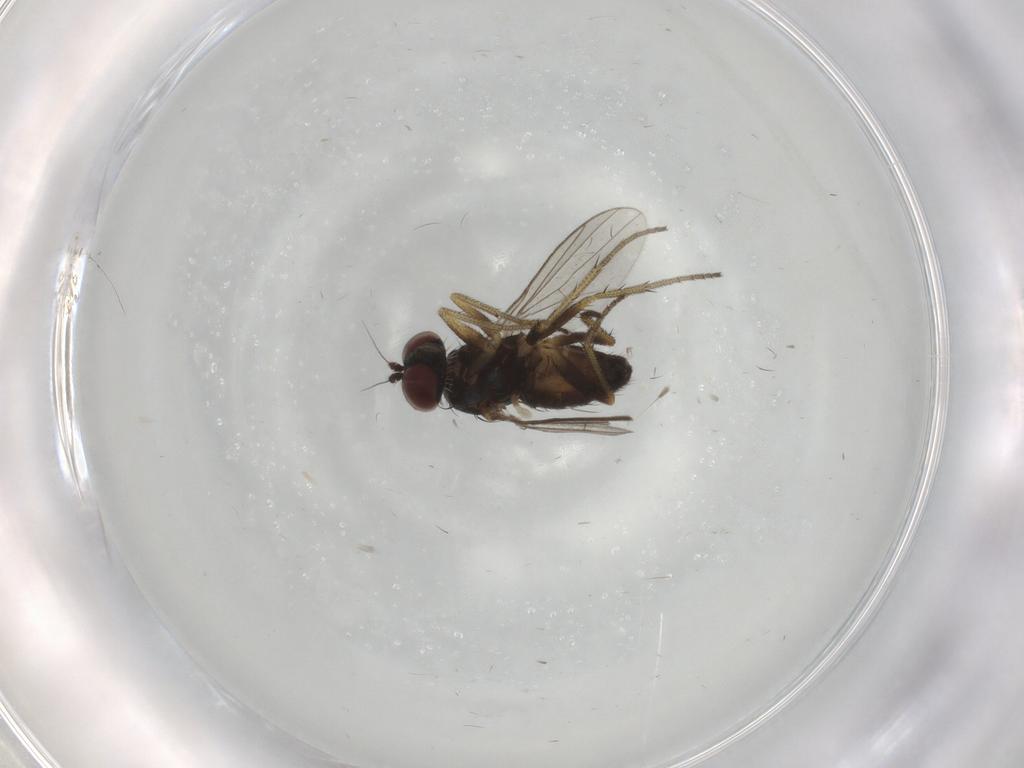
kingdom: Animalia
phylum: Arthropoda
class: Insecta
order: Diptera
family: Dolichopodidae
